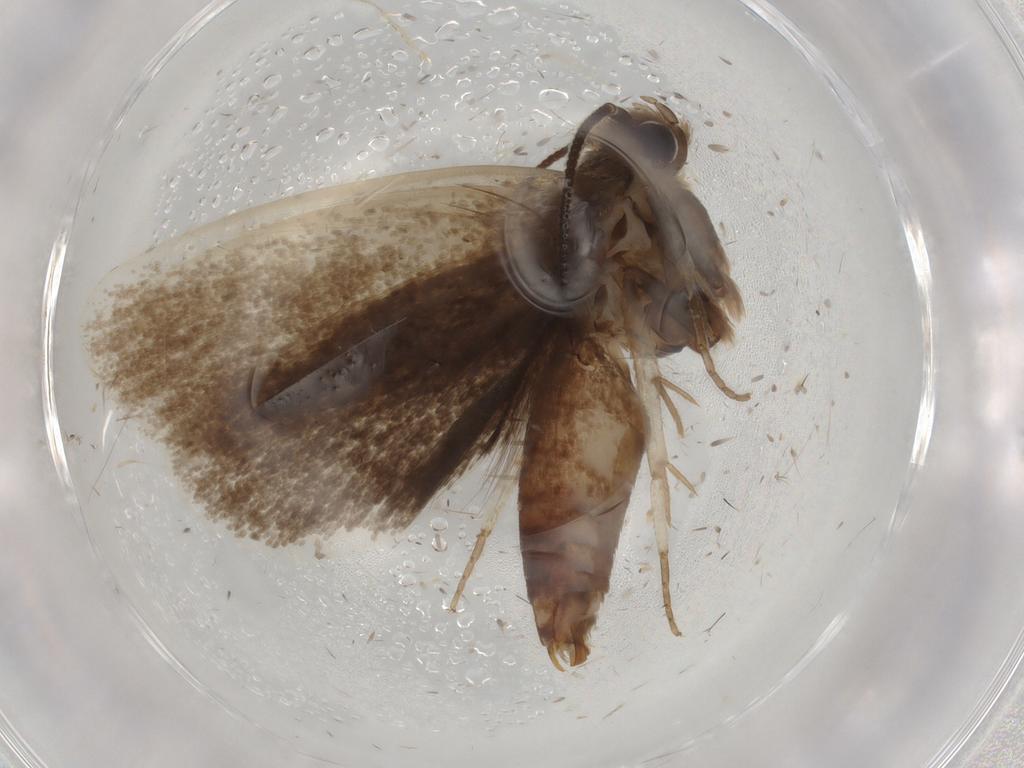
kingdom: Animalia
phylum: Arthropoda
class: Insecta
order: Lepidoptera
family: Tineidae
